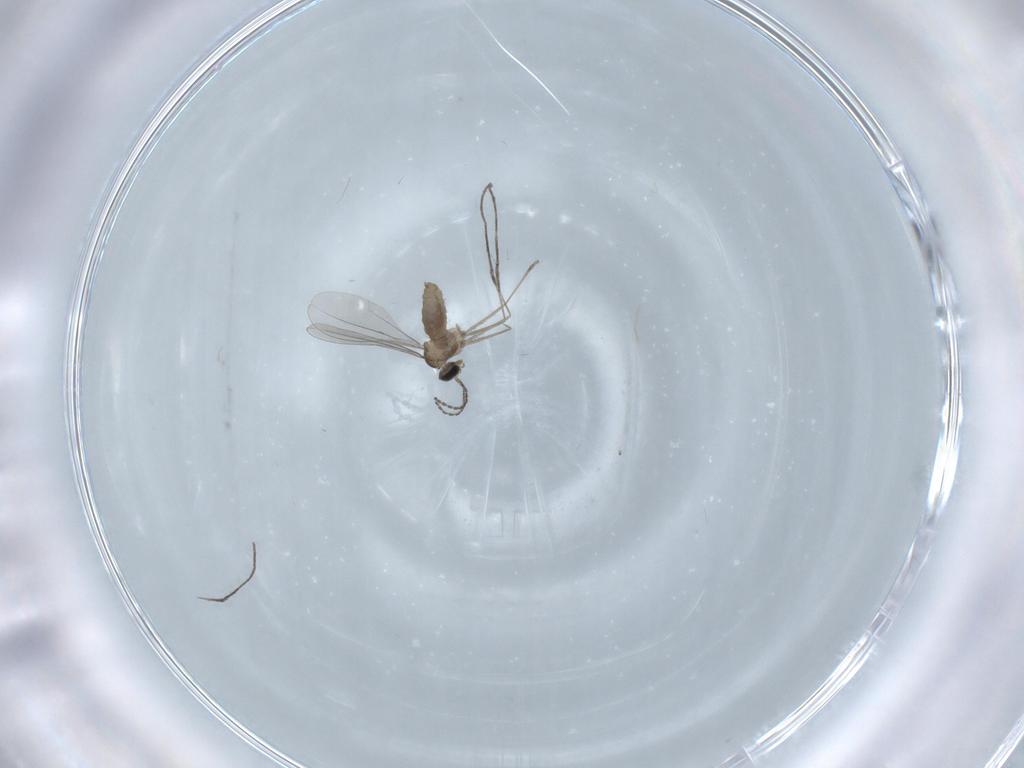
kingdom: Animalia
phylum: Arthropoda
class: Insecta
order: Diptera
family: Cecidomyiidae
